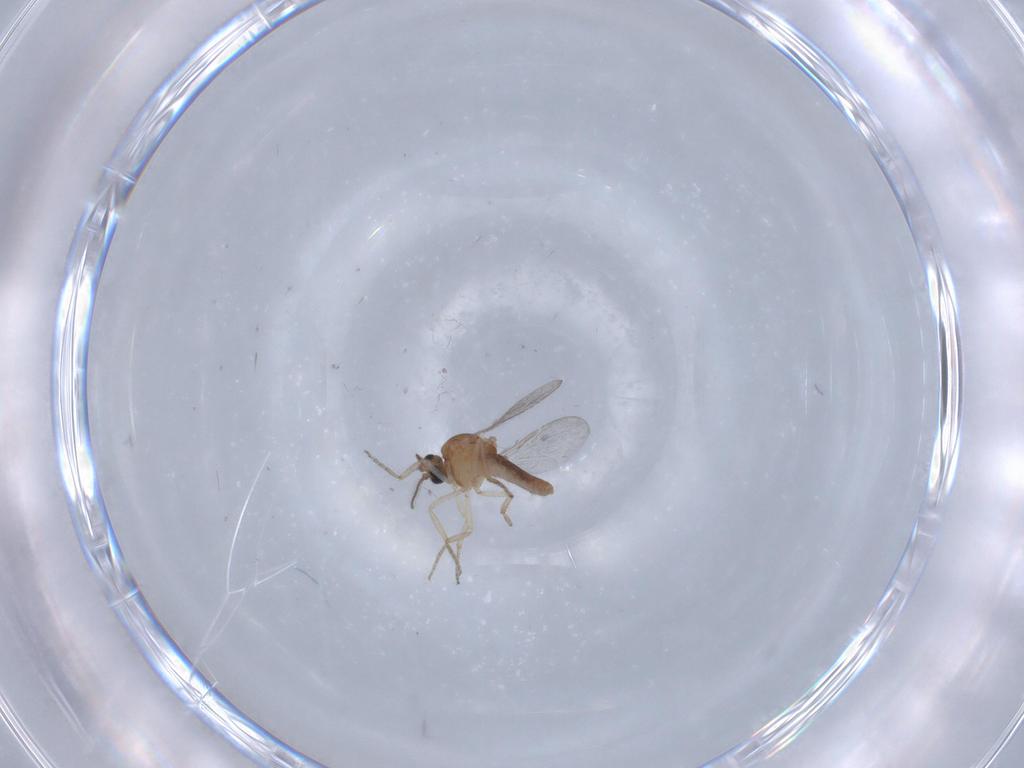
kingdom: Animalia
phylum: Arthropoda
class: Insecta
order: Diptera
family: Ceratopogonidae
